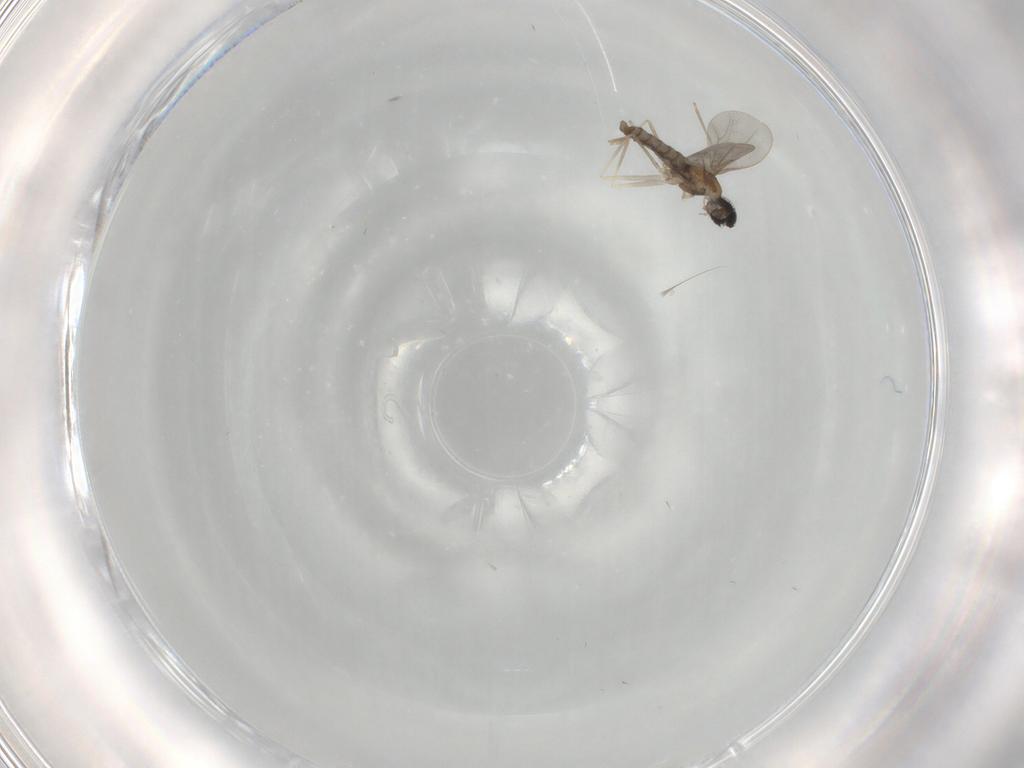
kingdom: Animalia
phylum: Arthropoda
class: Insecta
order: Diptera
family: Cecidomyiidae
